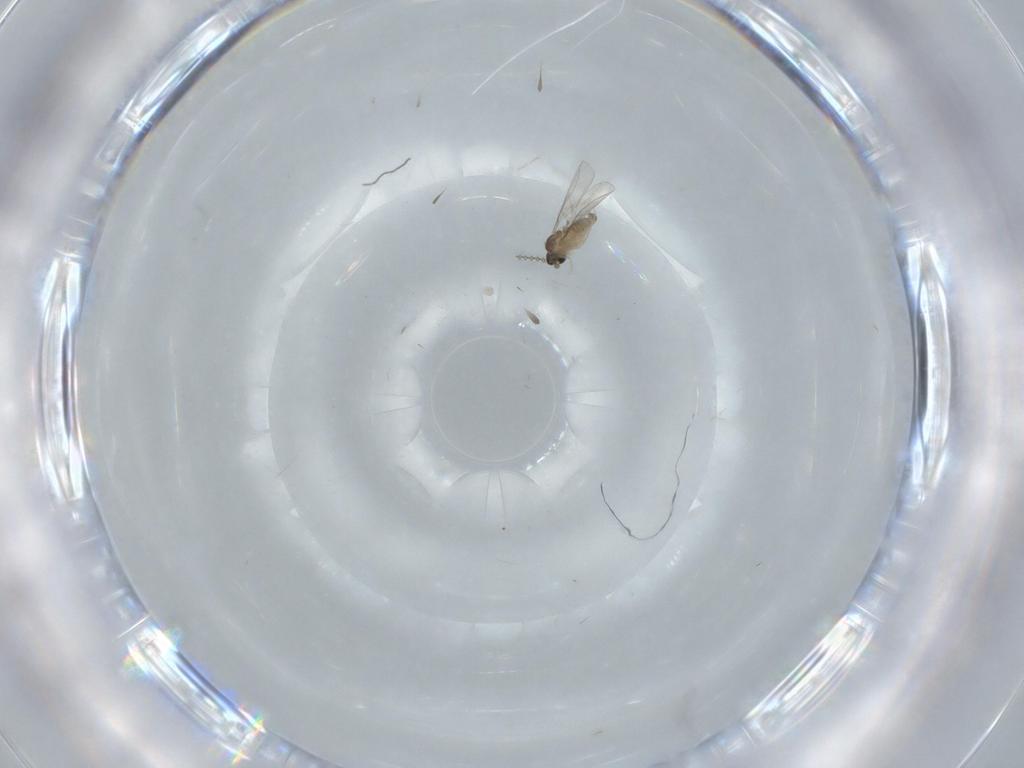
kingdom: Animalia
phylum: Arthropoda
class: Insecta
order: Diptera
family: Cecidomyiidae
